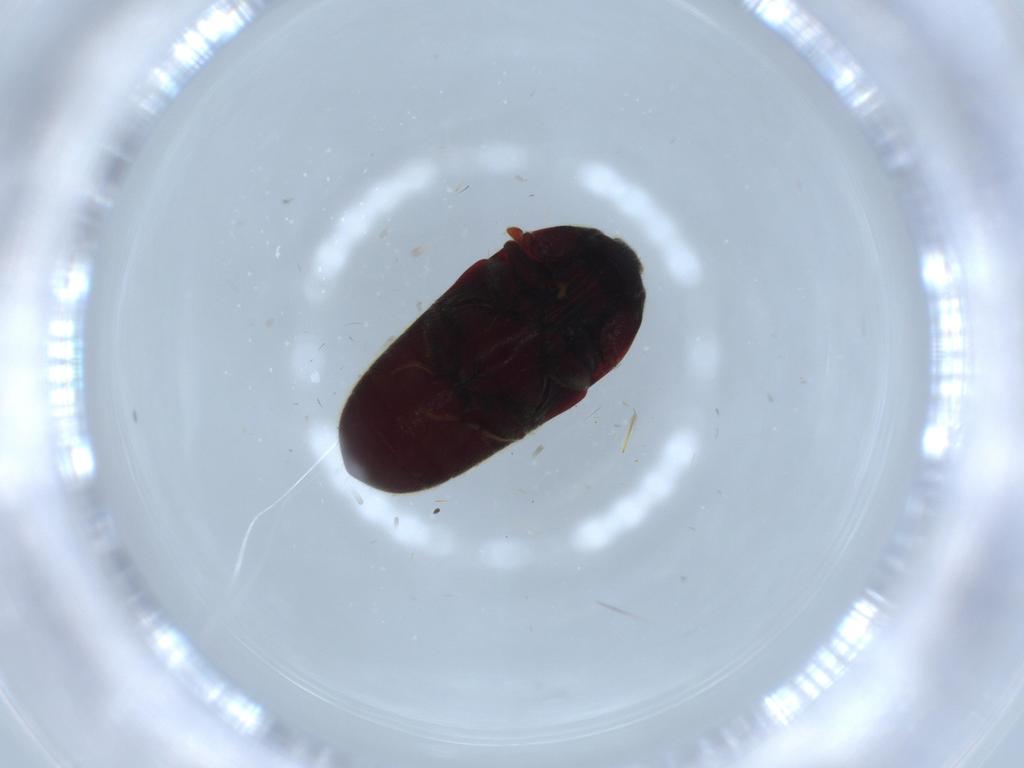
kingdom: Animalia
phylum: Arthropoda
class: Insecta
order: Coleoptera
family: Throscidae
